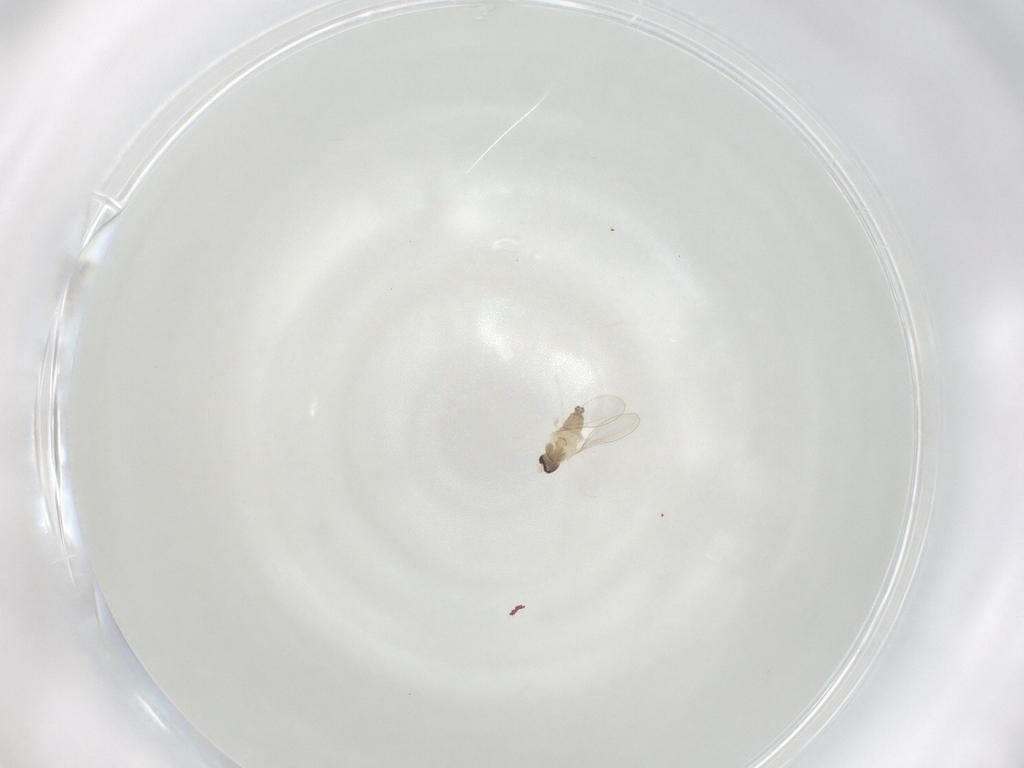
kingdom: Animalia
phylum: Arthropoda
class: Insecta
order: Diptera
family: Cecidomyiidae
